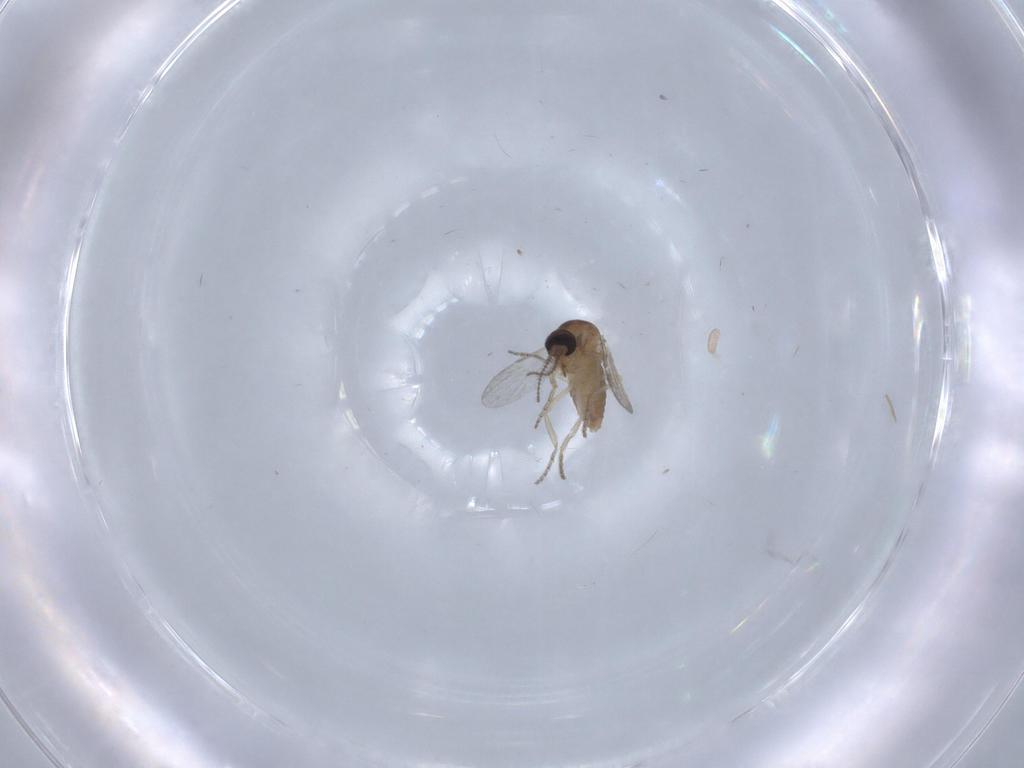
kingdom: Animalia
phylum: Arthropoda
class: Insecta
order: Diptera
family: Ceratopogonidae
